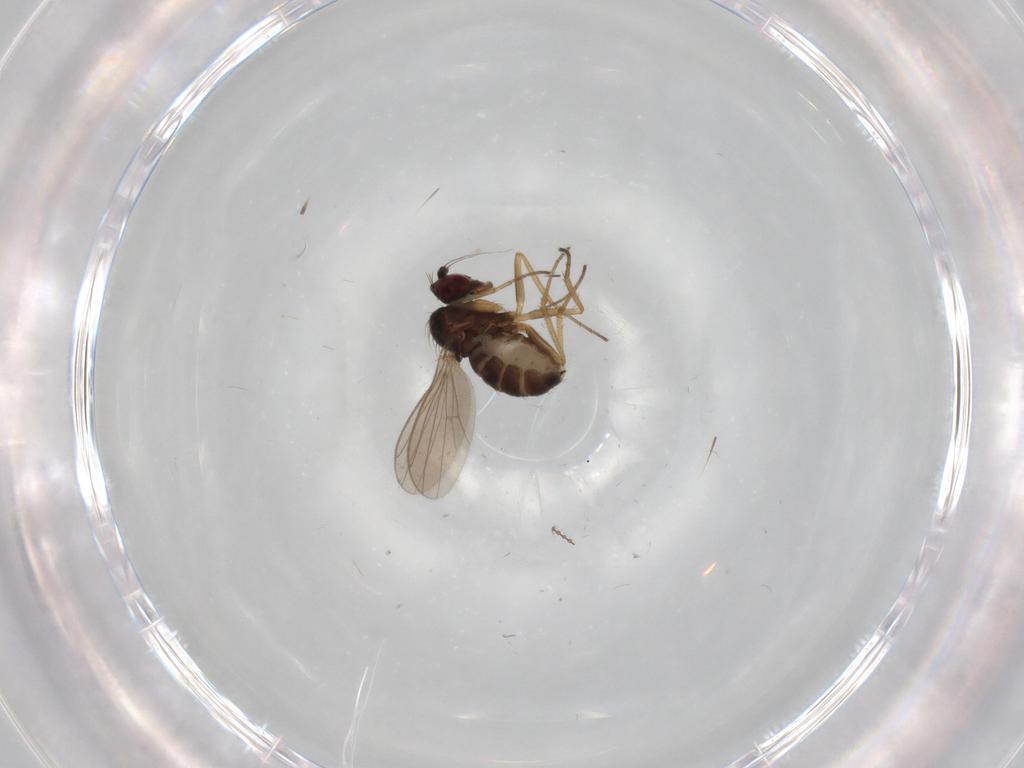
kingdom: Animalia
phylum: Arthropoda
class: Insecta
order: Diptera
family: Dolichopodidae
